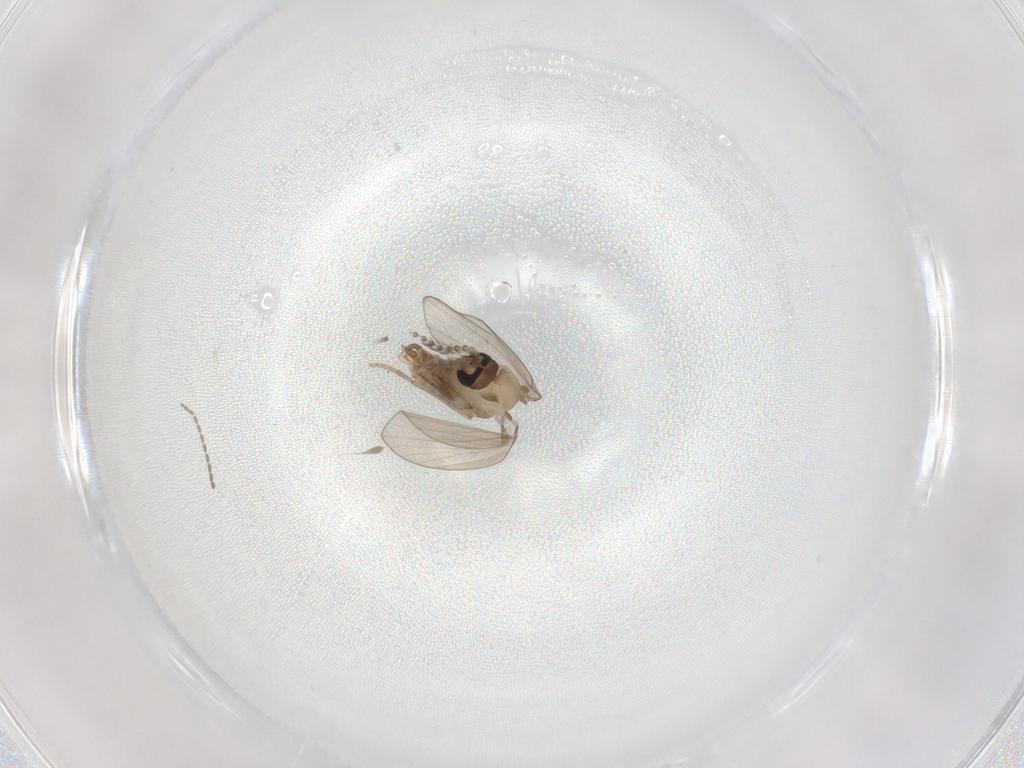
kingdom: Animalia
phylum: Arthropoda
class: Insecta
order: Diptera
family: Psychodidae
